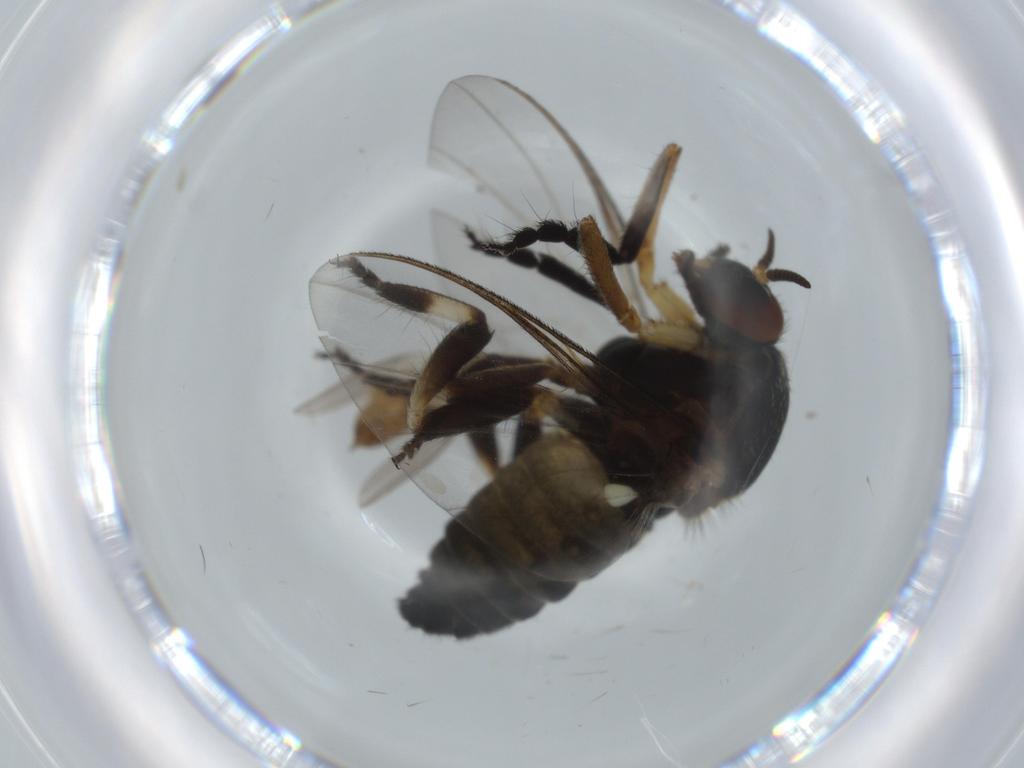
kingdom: Animalia
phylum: Arthropoda
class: Insecta
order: Diptera
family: Sciaridae
